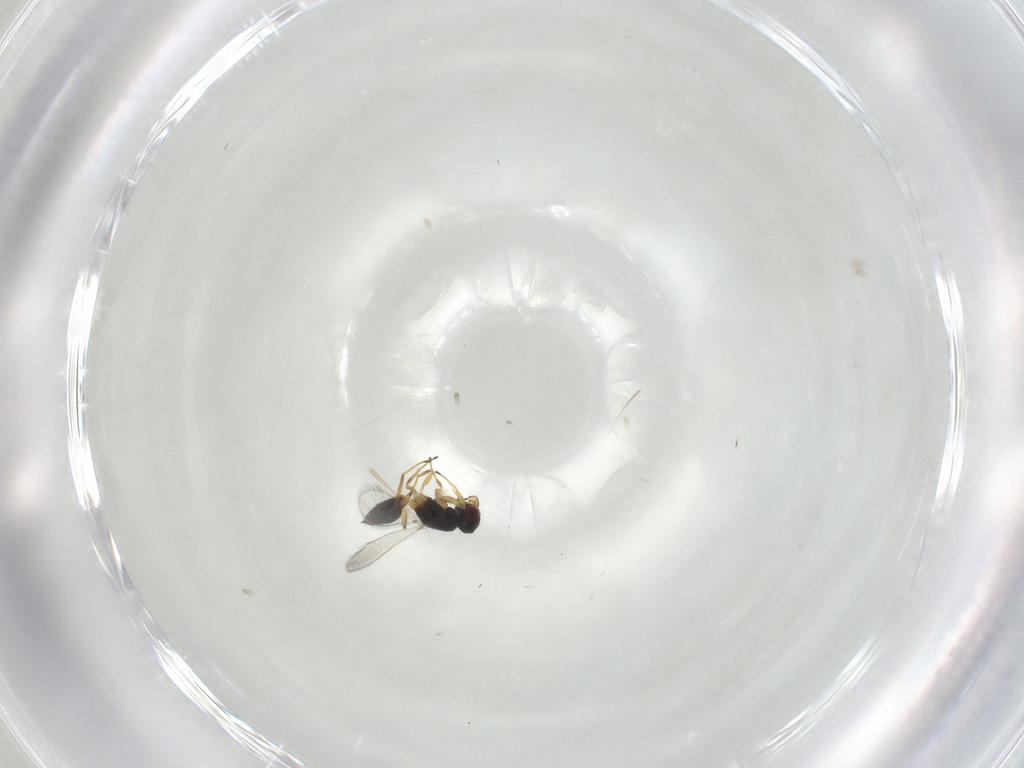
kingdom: Animalia
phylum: Arthropoda
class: Insecta
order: Hymenoptera
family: Mymaridae
